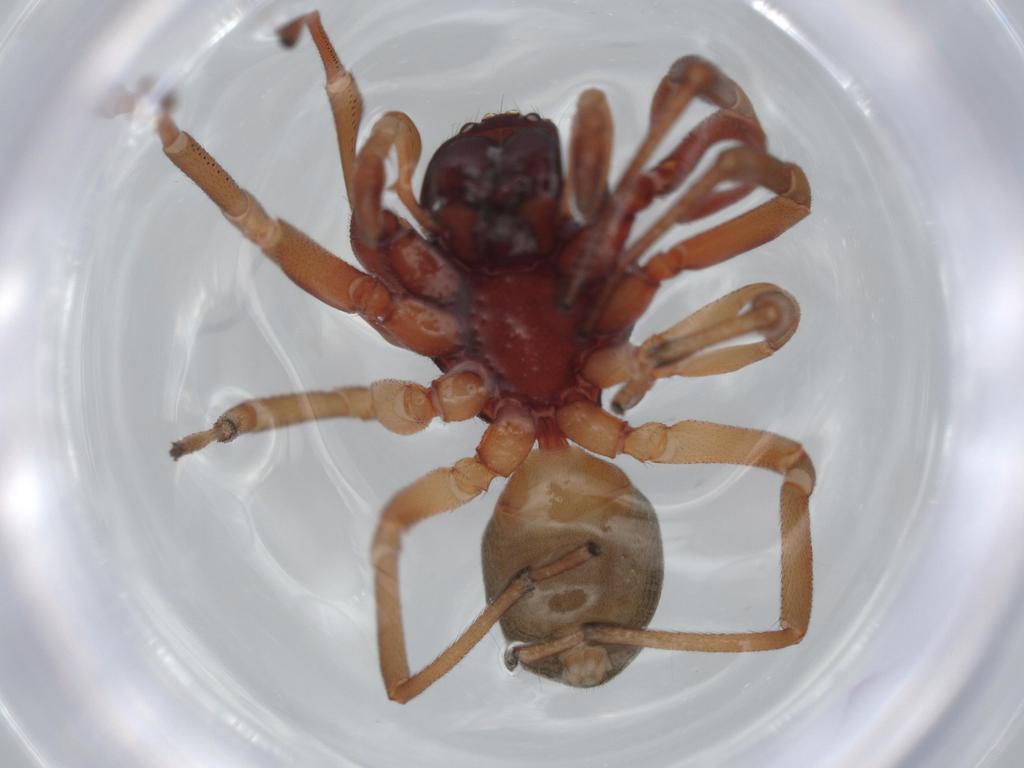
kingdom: Animalia
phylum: Arthropoda
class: Arachnida
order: Araneae
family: Trachelidae
